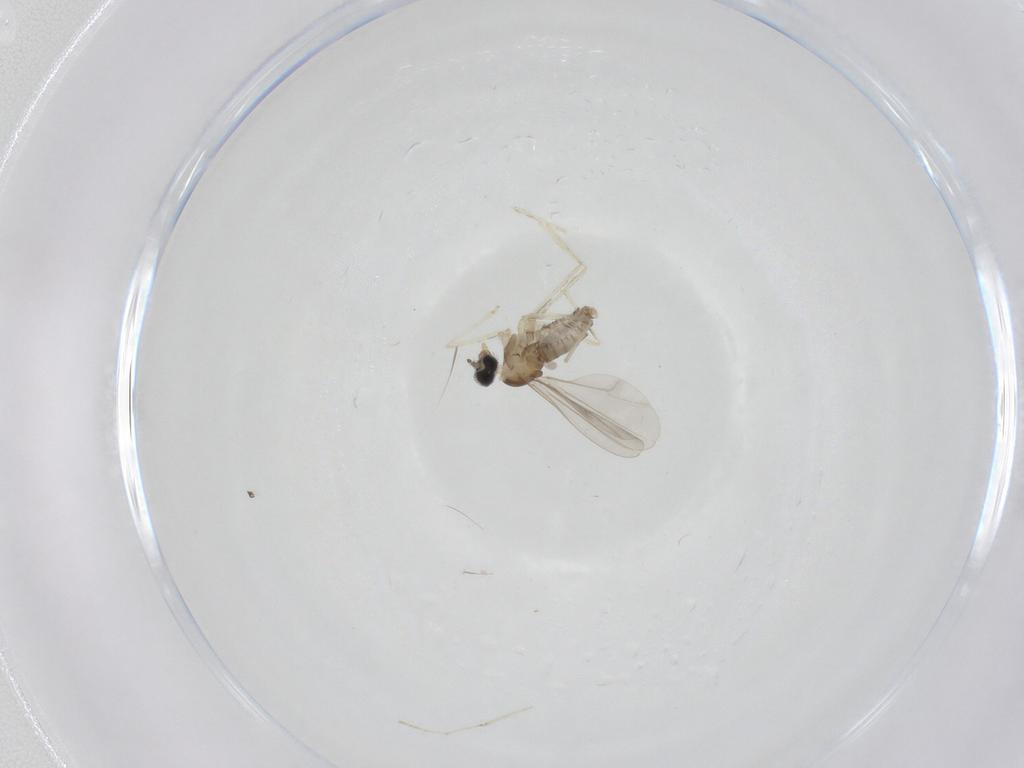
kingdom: Animalia
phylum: Arthropoda
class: Insecta
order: Diptera
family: Cecidomyiidae
